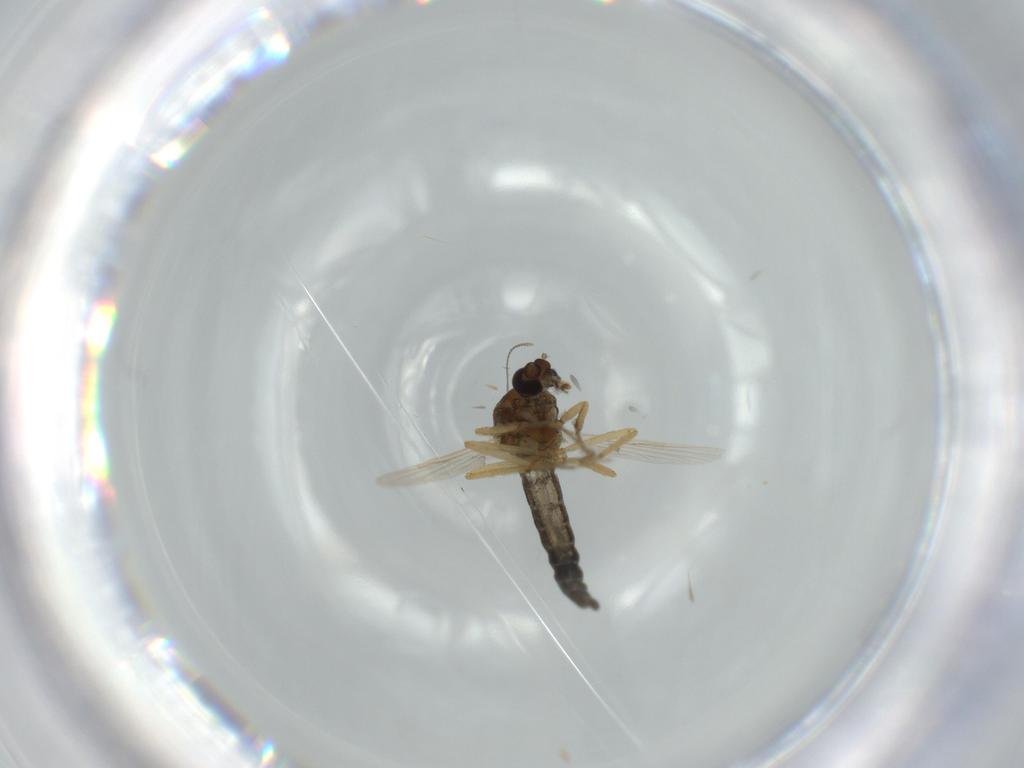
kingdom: Animalia
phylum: Arthropoda
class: Insecta
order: Diptera
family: Ceratopogonidae
